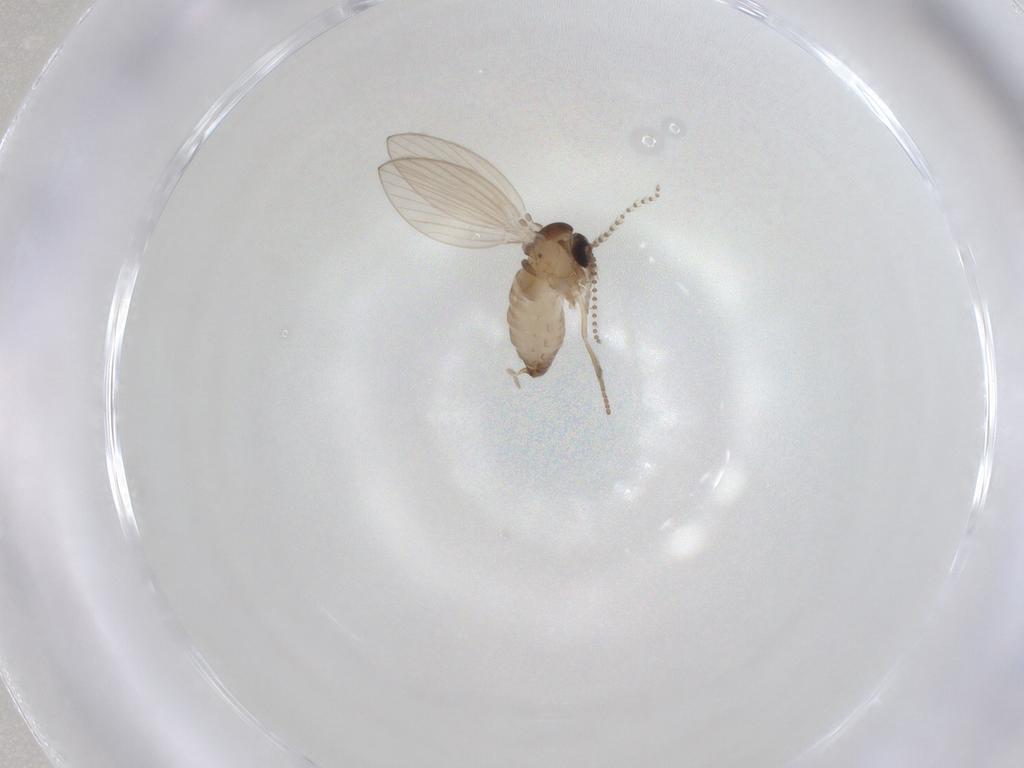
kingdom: Animalia
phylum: Arthropoda
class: Insecta
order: Diptera
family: Psychodidae
